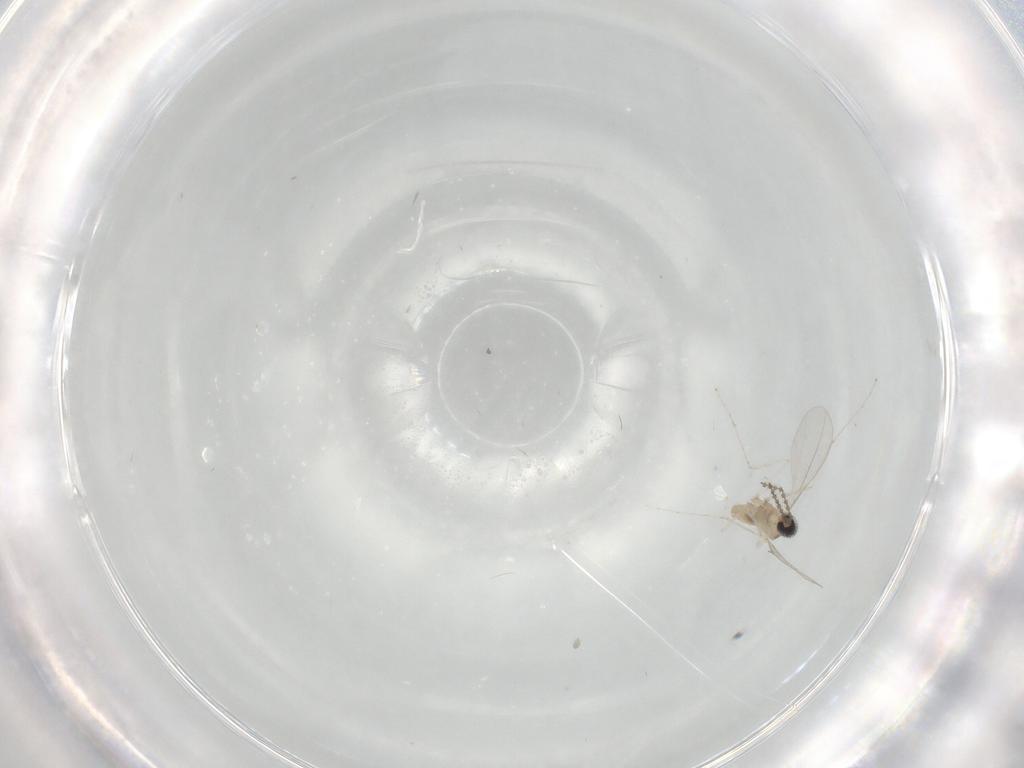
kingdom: Animalia
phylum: Arthropoda
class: Insecta
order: Diptera
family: Cecidomyiidae
